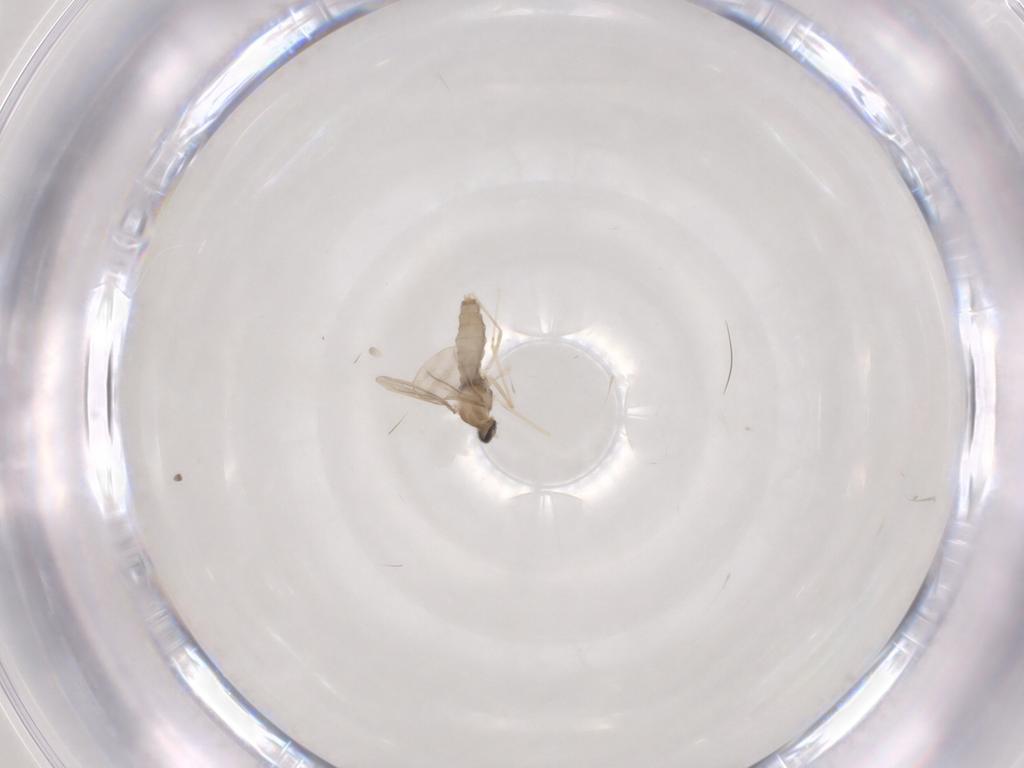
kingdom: Animalia
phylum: Arthropoda
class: Insecta
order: Diptera
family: Cecidomyiidae
